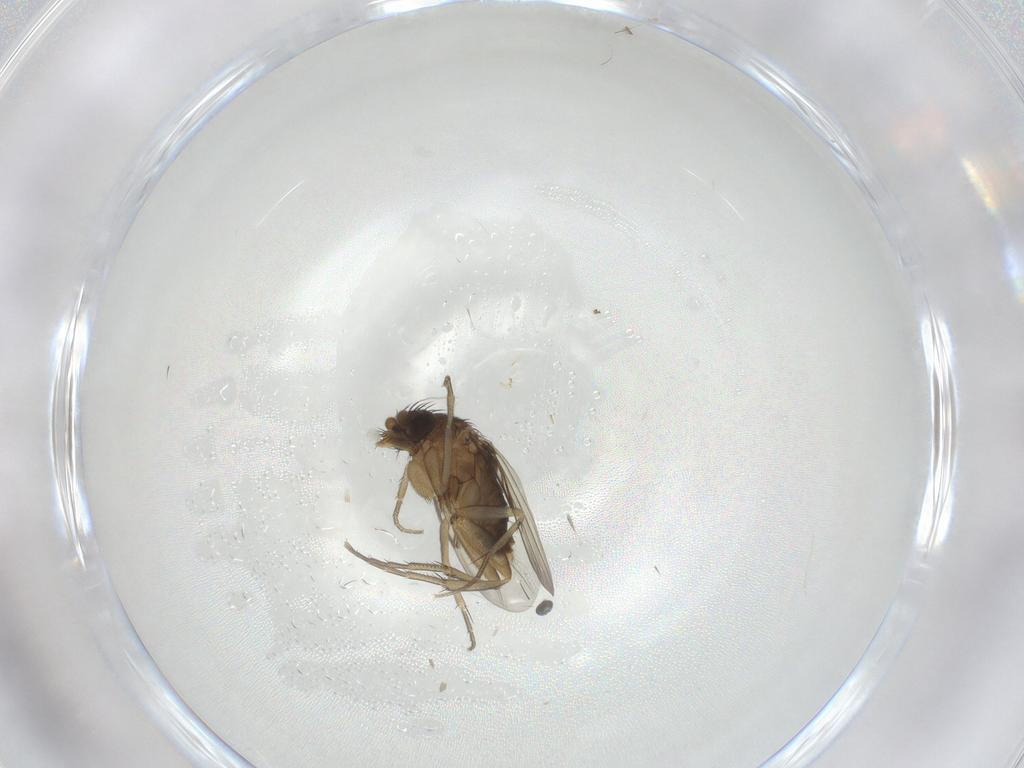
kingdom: Animalia
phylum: Arthropoda
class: Insecta
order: Diptera
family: Phoridae
